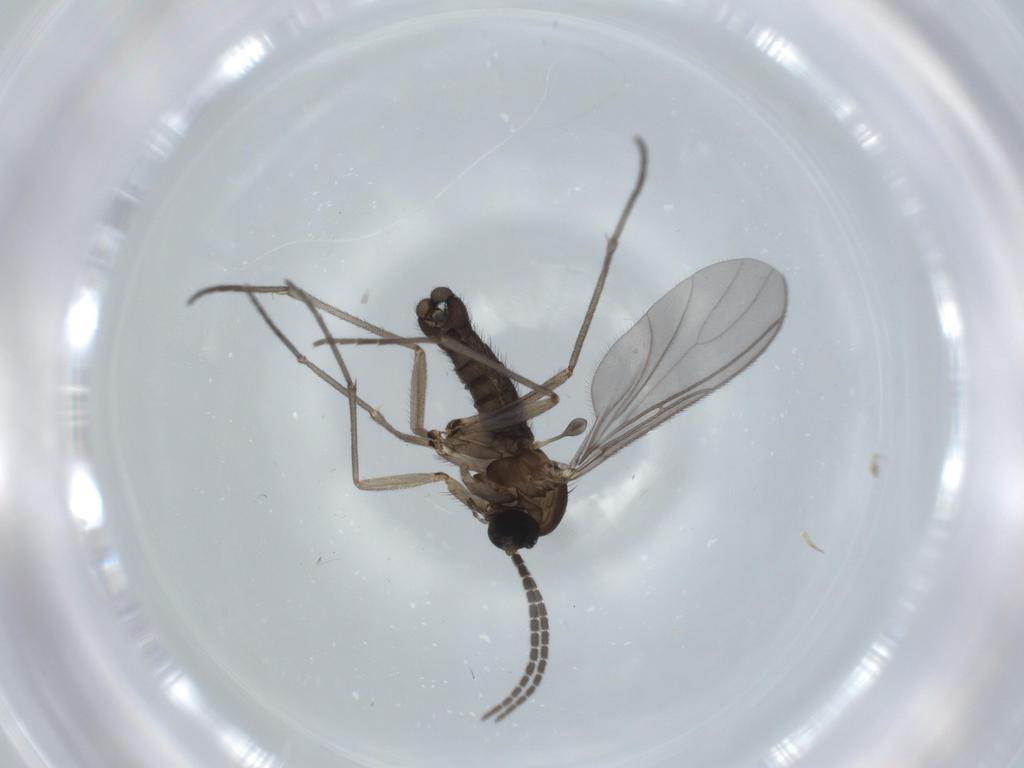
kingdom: Animalia
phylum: Arthropoda
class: Insecta
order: Diptera
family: Sciaridae
